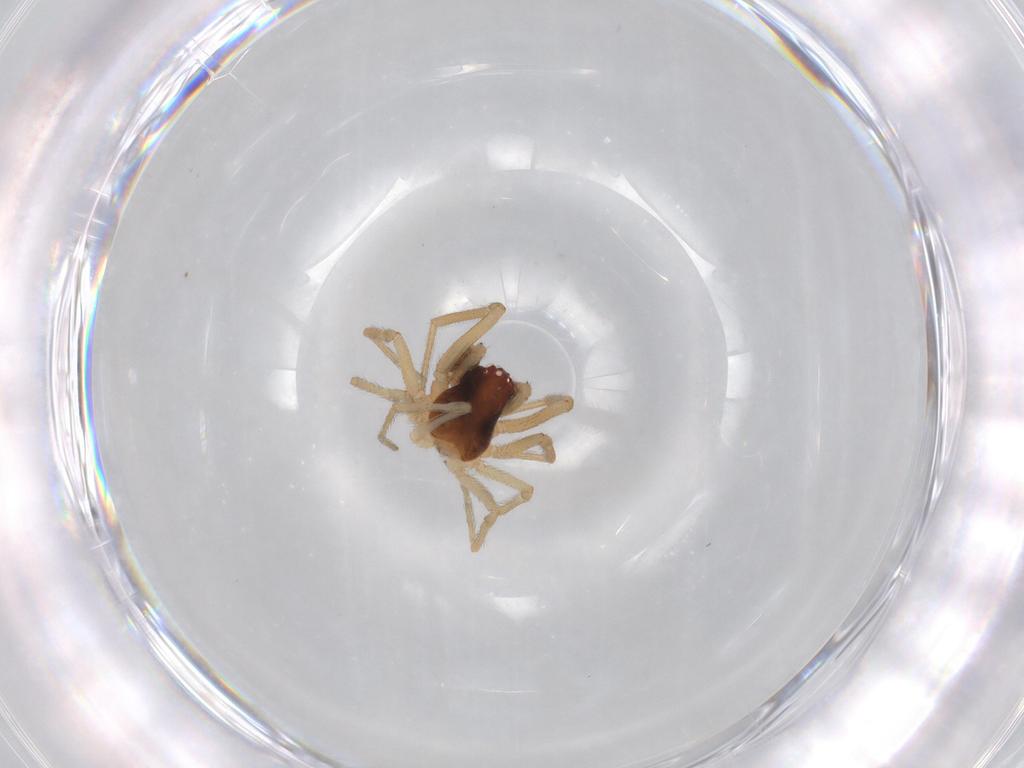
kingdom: Animalia
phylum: Arthropoda
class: Arachnida
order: Araneae
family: Dictynidae
